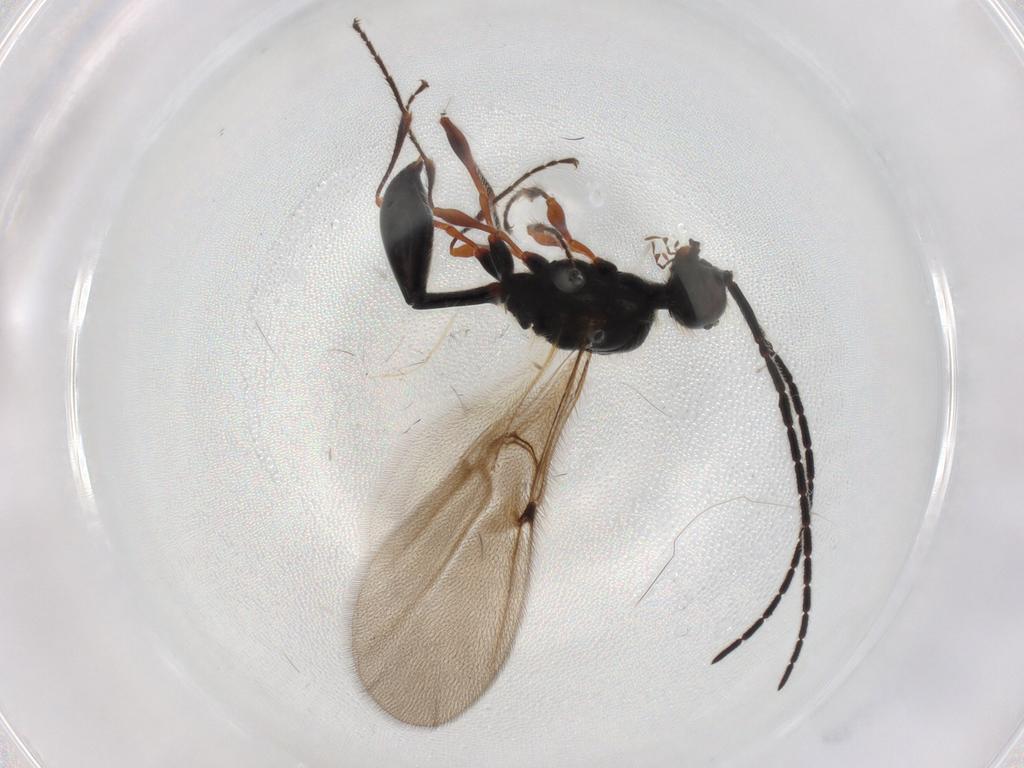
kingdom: Animalia
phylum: Arthropoda
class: Insecta
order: Hymenoptera
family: Diapriidae
